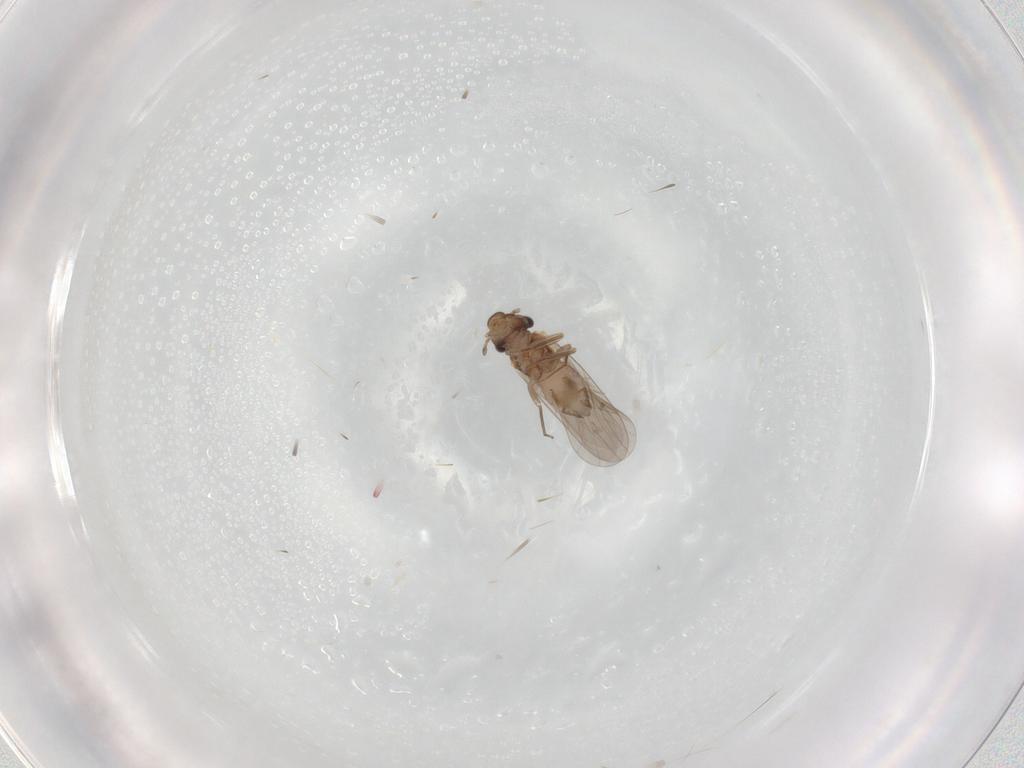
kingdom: Animalia
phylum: Arthropoda
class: Insecta
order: Psocodea
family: Lepidopsocidae
